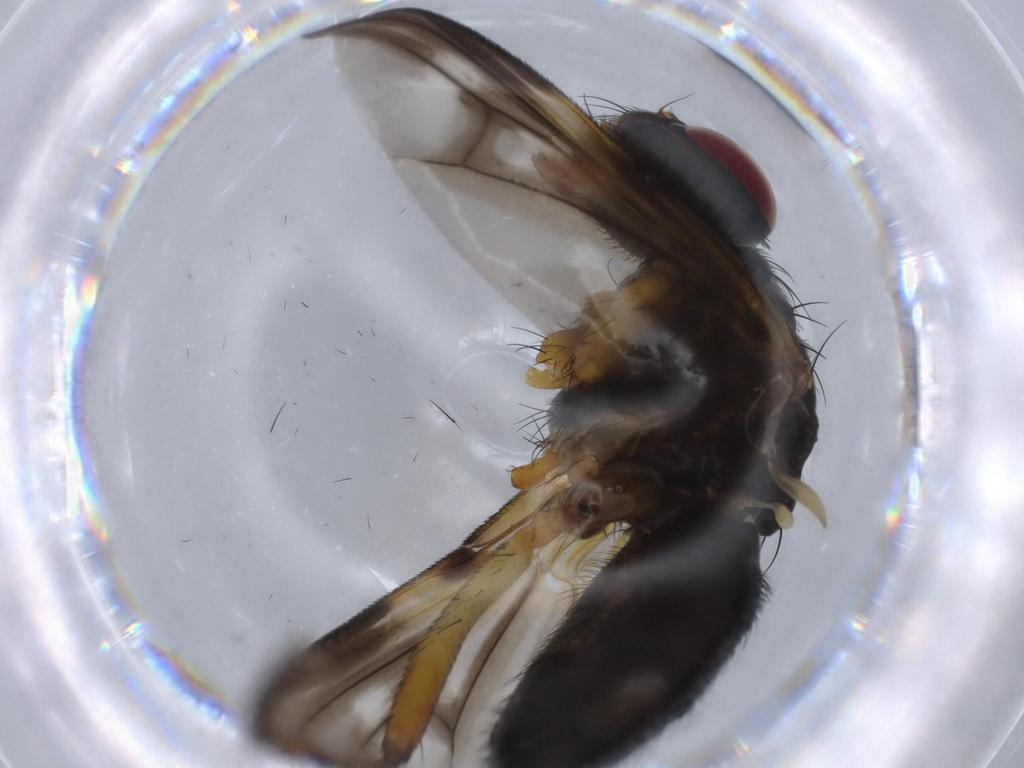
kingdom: Animalia
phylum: Arthropoda
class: Insecta
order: Diptera
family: Calliphoridae
